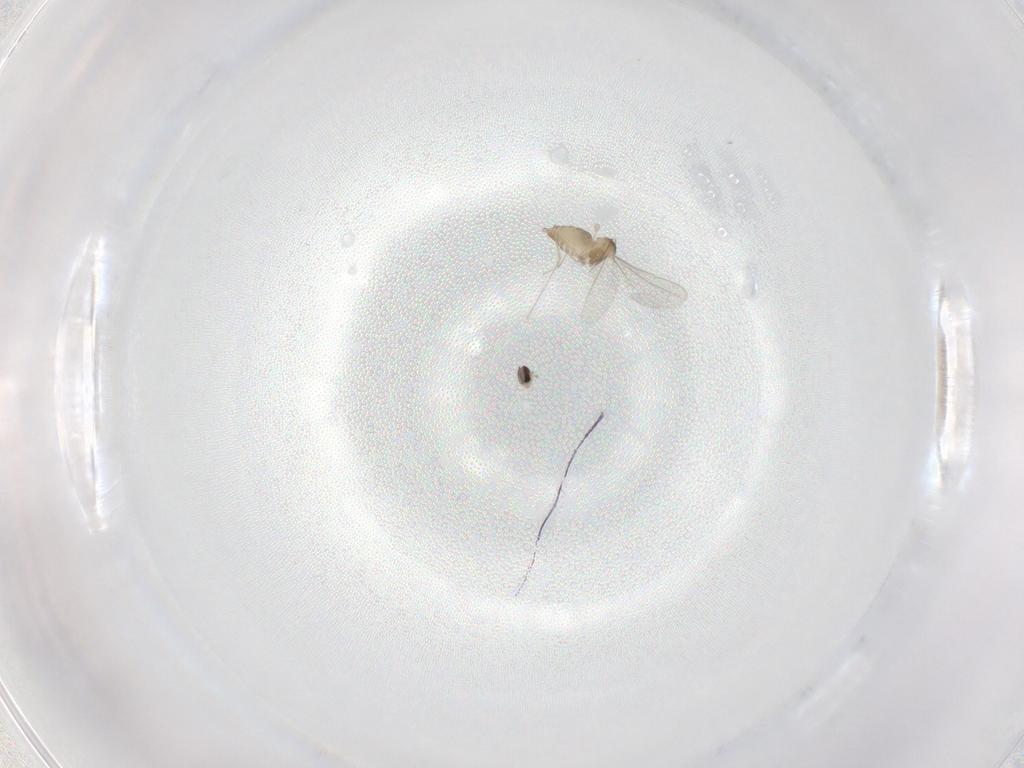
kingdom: Animalia
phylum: Arthropoda
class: Insecta
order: Diptera
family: Cecidomyiidae
